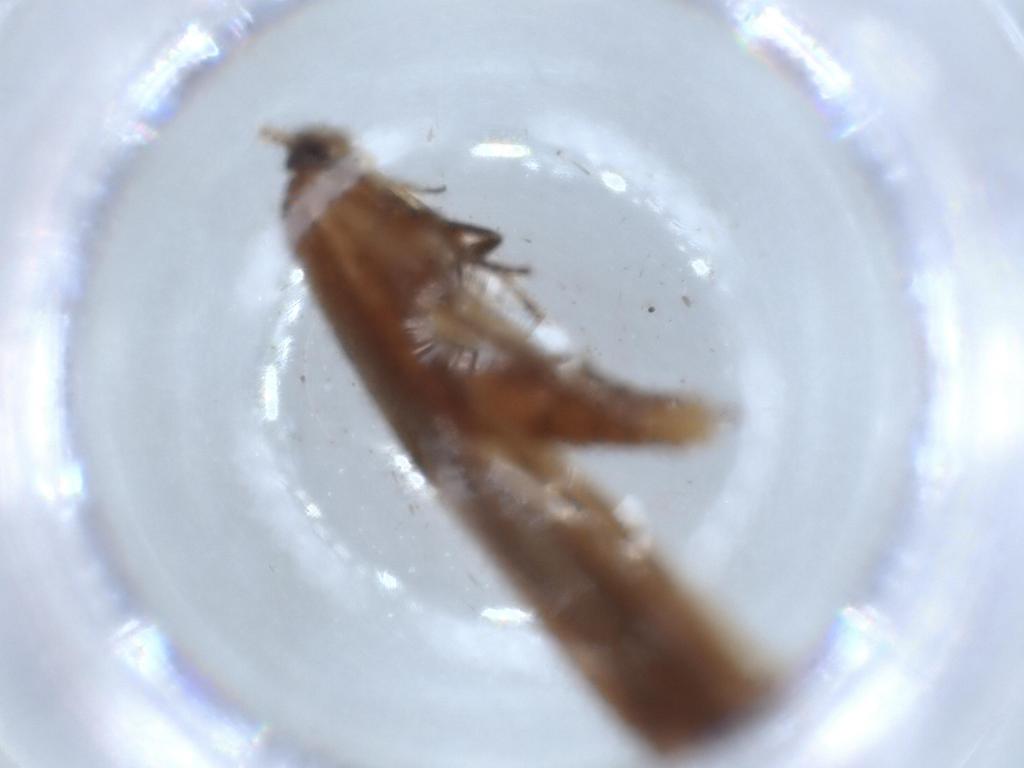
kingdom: Animalia
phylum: Arthropoda
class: Insecta
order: Lepidoptera
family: Stathmopodidae
